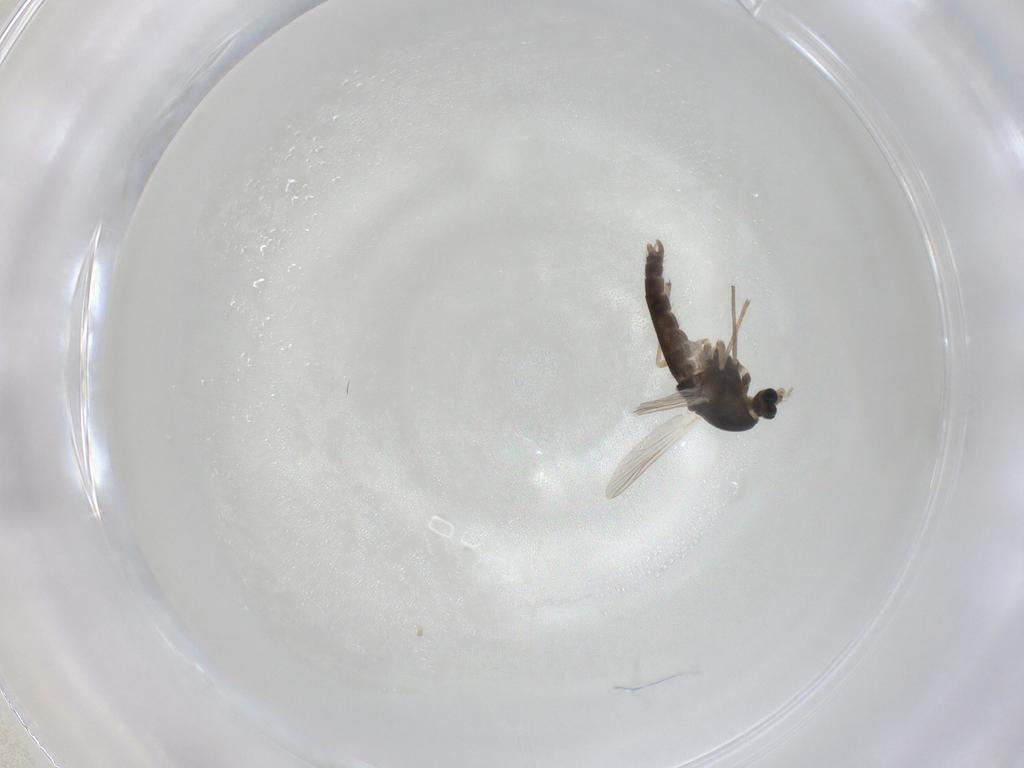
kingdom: Animalia
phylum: Arthropoda
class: Insecta
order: Diptera
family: Chironomidae
